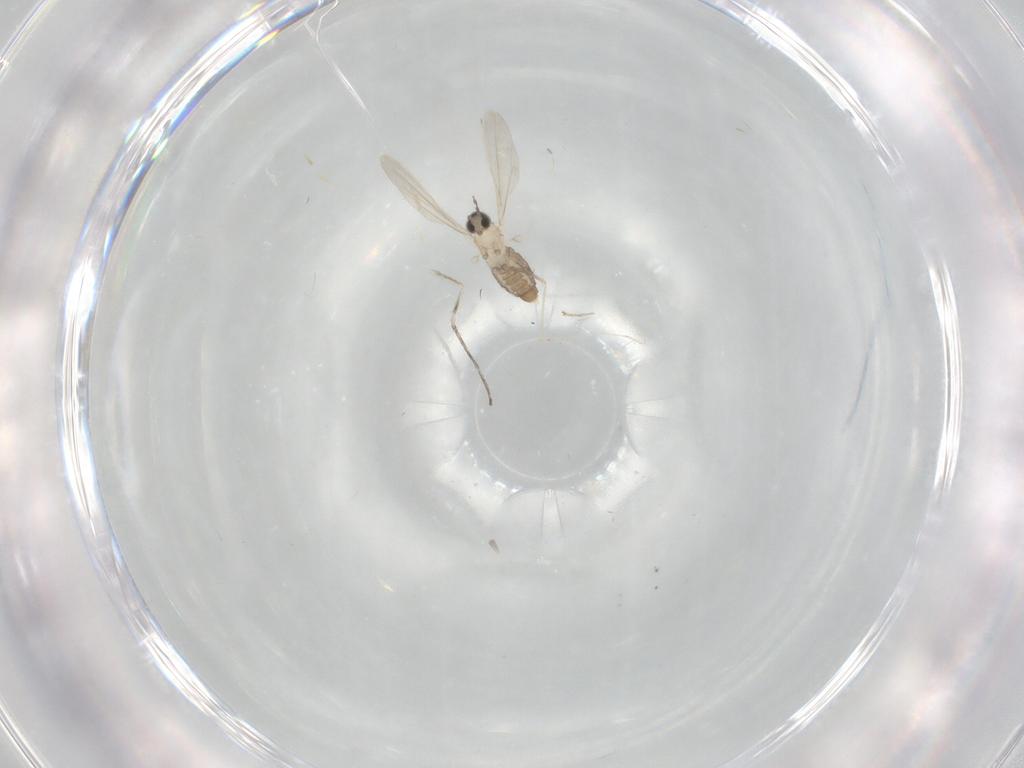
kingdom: Animalia
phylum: Arthropoda
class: Insecta
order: Diptera
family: Cecidomyiidae
